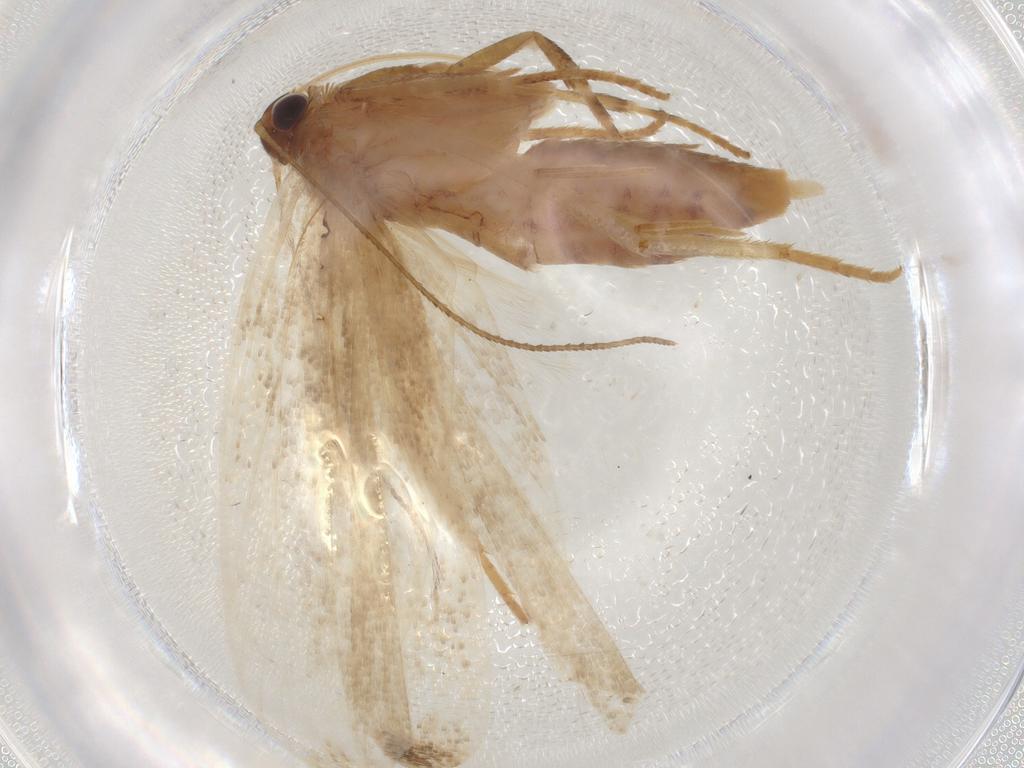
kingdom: Animalia
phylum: Arthropoda
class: Insecta
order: Lepidoptera
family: Gelechiidae
